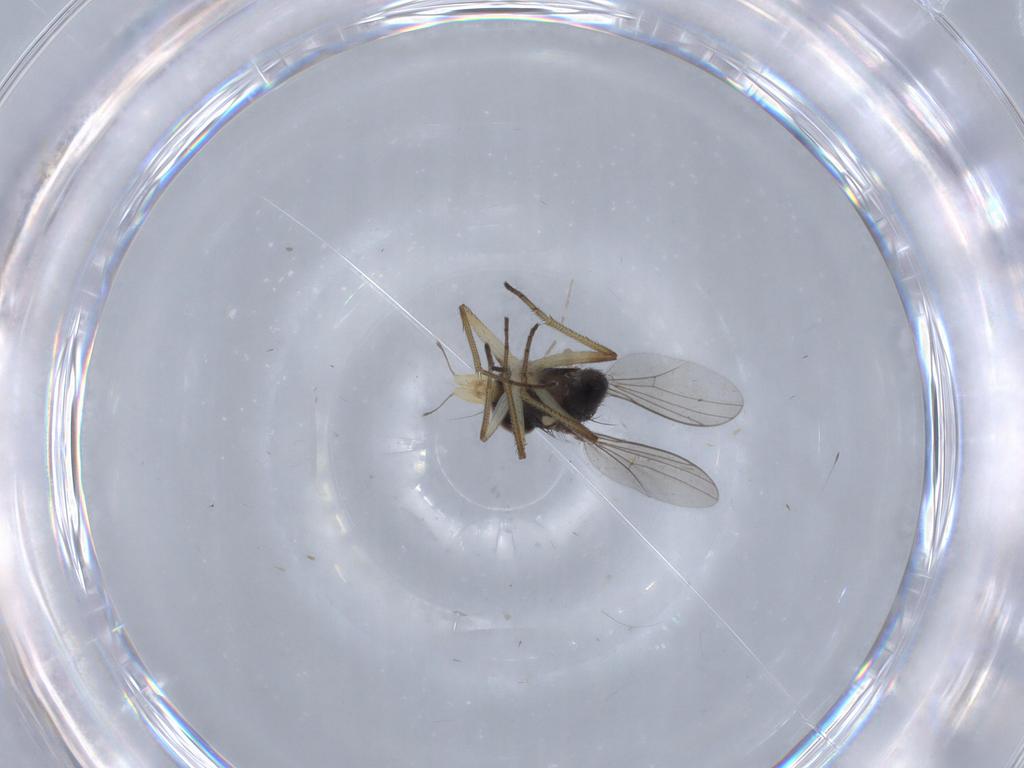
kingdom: Animalia
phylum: Arthropoda
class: Insecta
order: Diptera
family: Dolichopodidae
